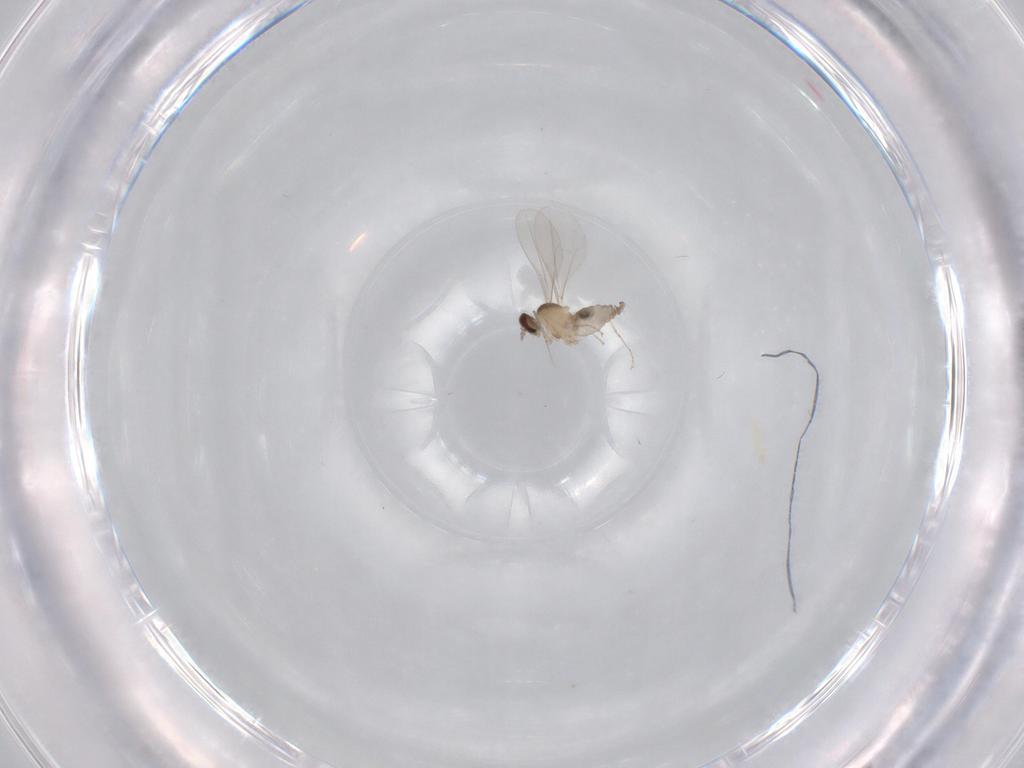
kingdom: Animalia
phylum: Arthropoda
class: Insecta
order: Diptera
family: Cecidomyiidae
